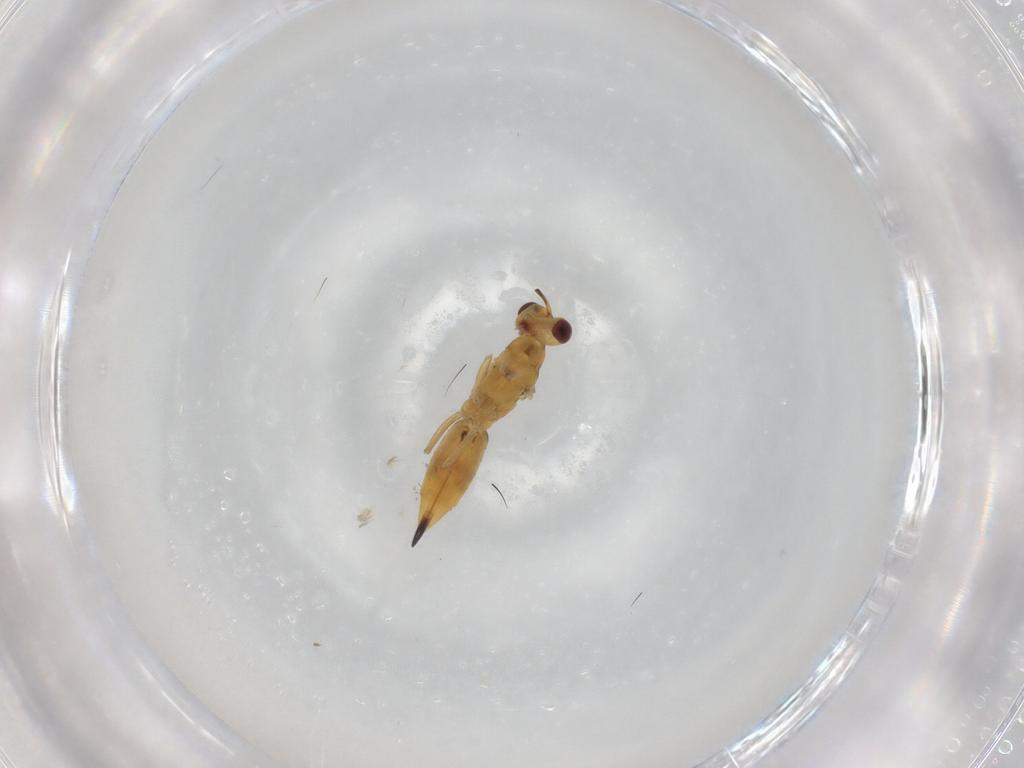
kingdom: Animalia
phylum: Arthropoda
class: Insecta
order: Hymenoptera
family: Eulophidae
